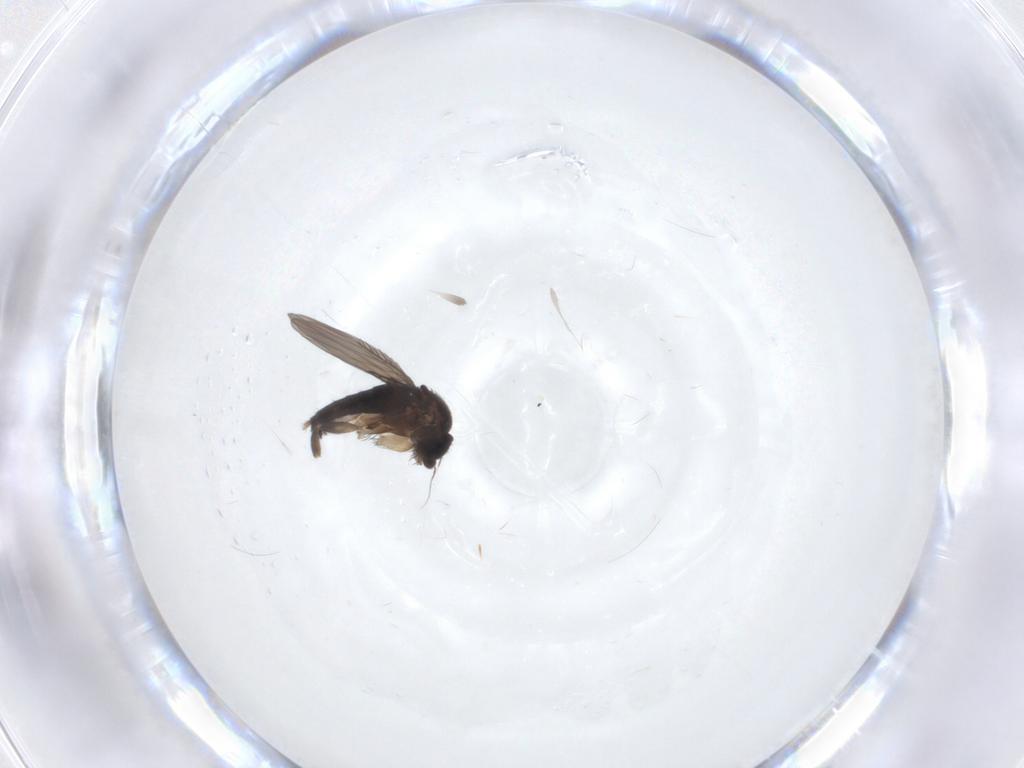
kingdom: Animalia
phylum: Arthropoda
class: Insecta
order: Diptera
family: Phoridae
